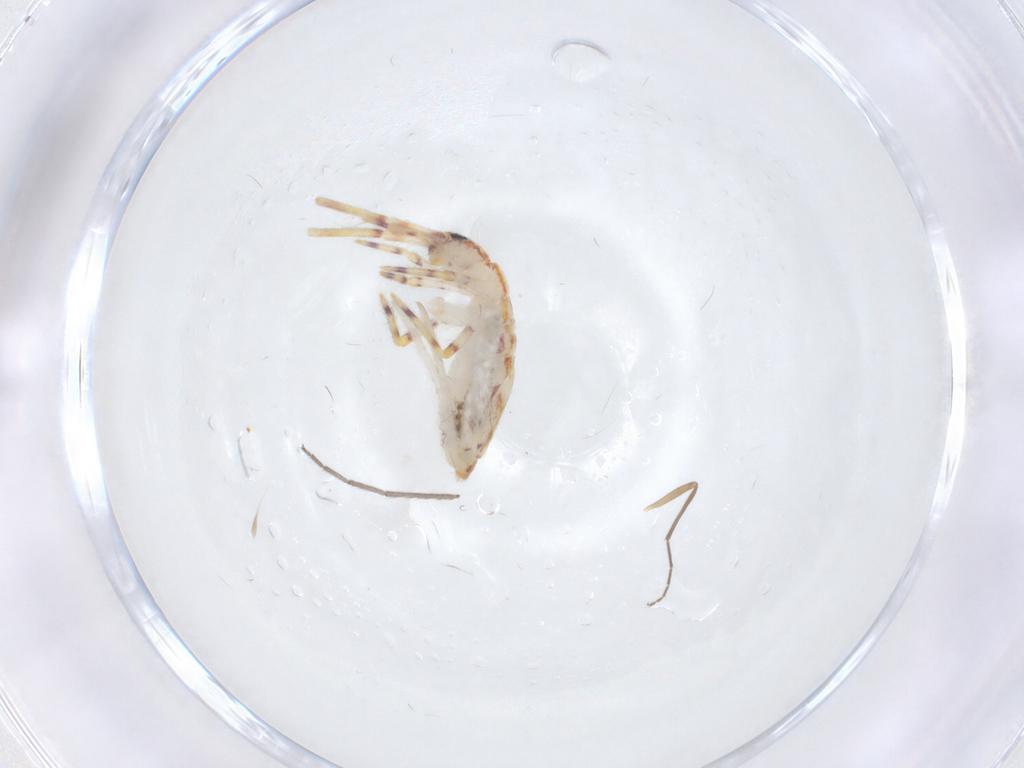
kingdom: Animalia
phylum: Arthropoda
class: Collembola
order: Entomobryomorpha
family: Entomobryidae
